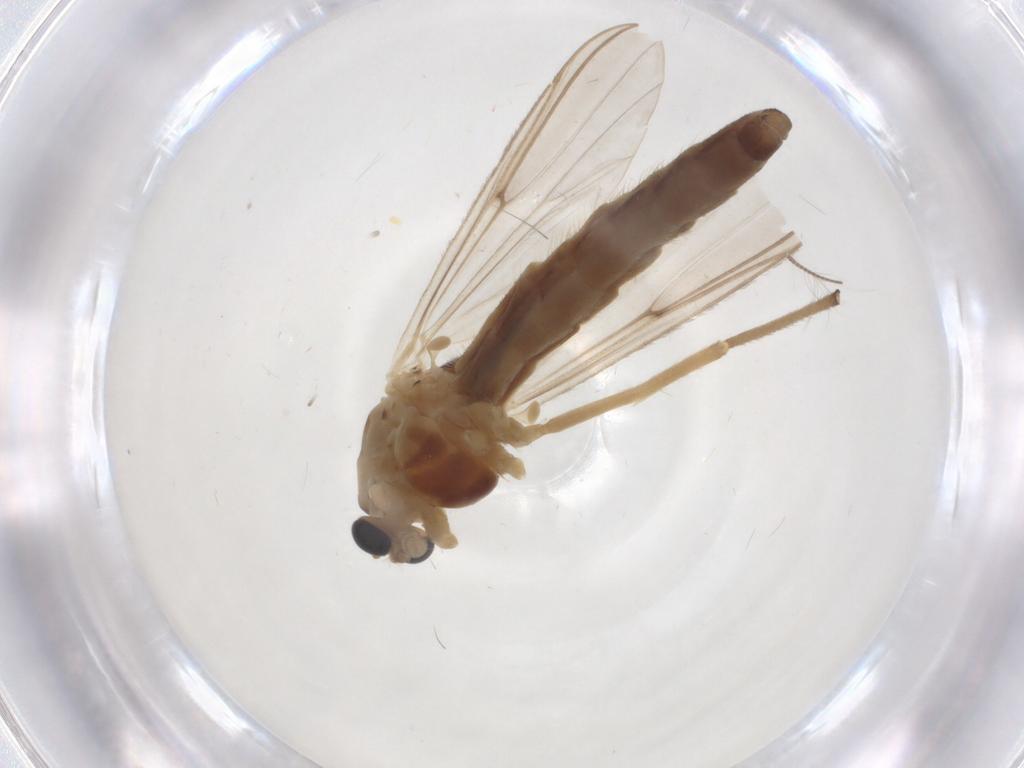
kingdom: Animalia
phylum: Arthropoda
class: Insecta
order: Diptera
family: Chironomidae
